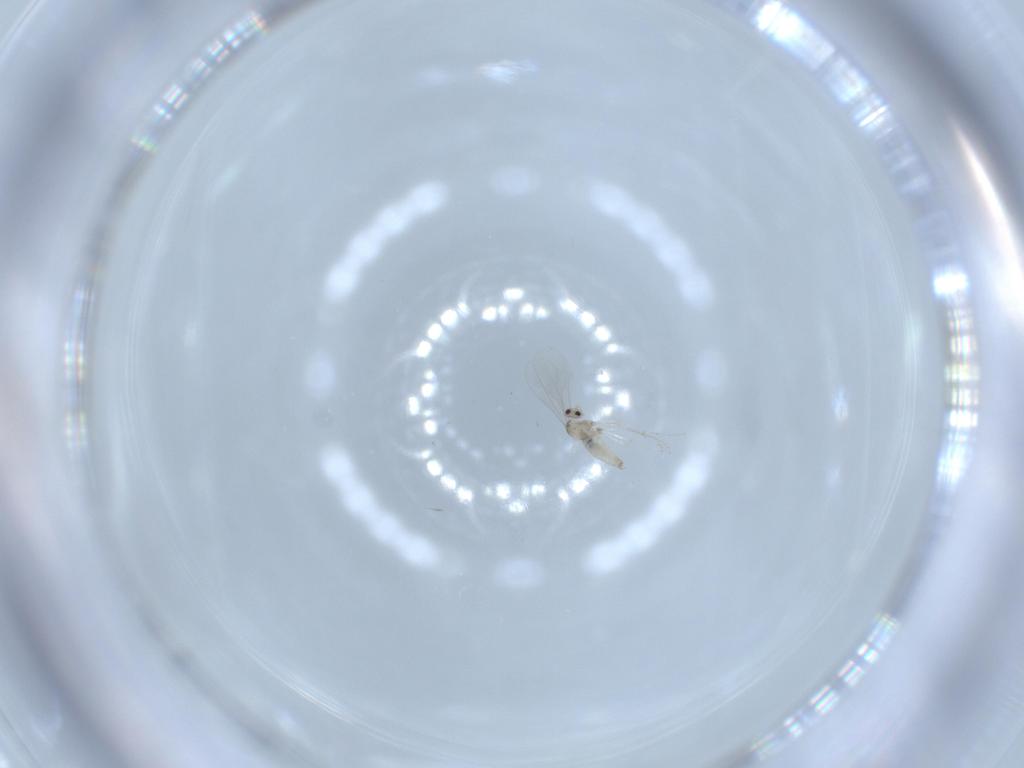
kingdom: Animalia
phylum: Arthropoda
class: Insecta
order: Diptera
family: Cecidomyiidae
